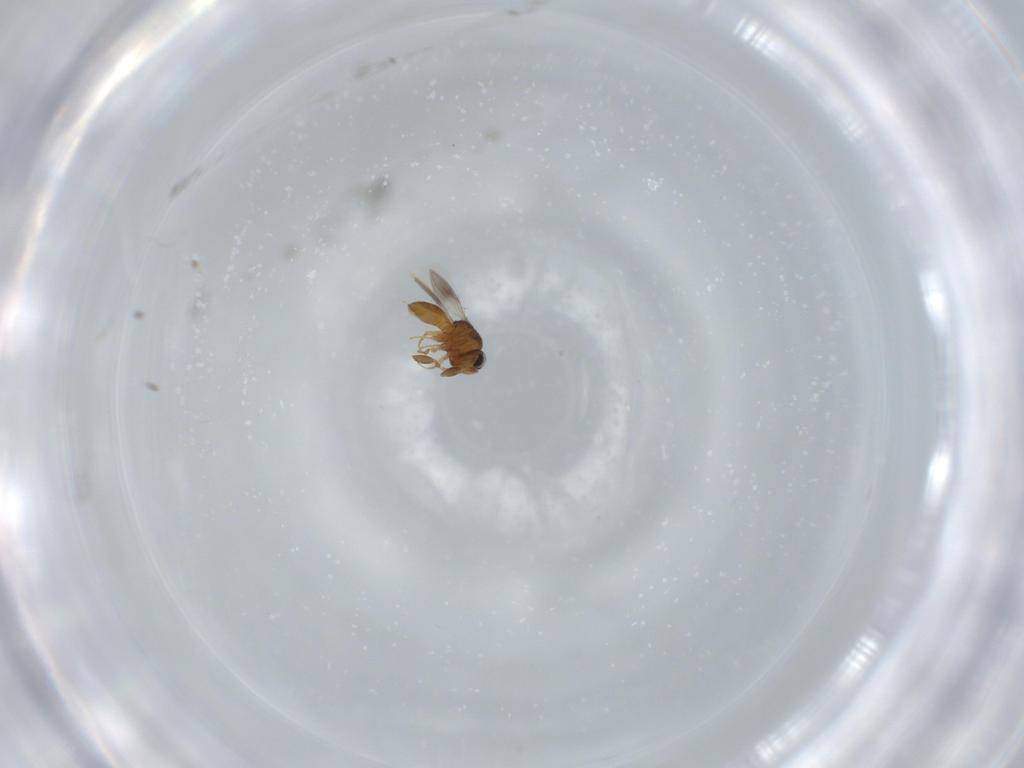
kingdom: Animalia
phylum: Arthropoda
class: Insecta
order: Hymenoptera
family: Scelionidae
